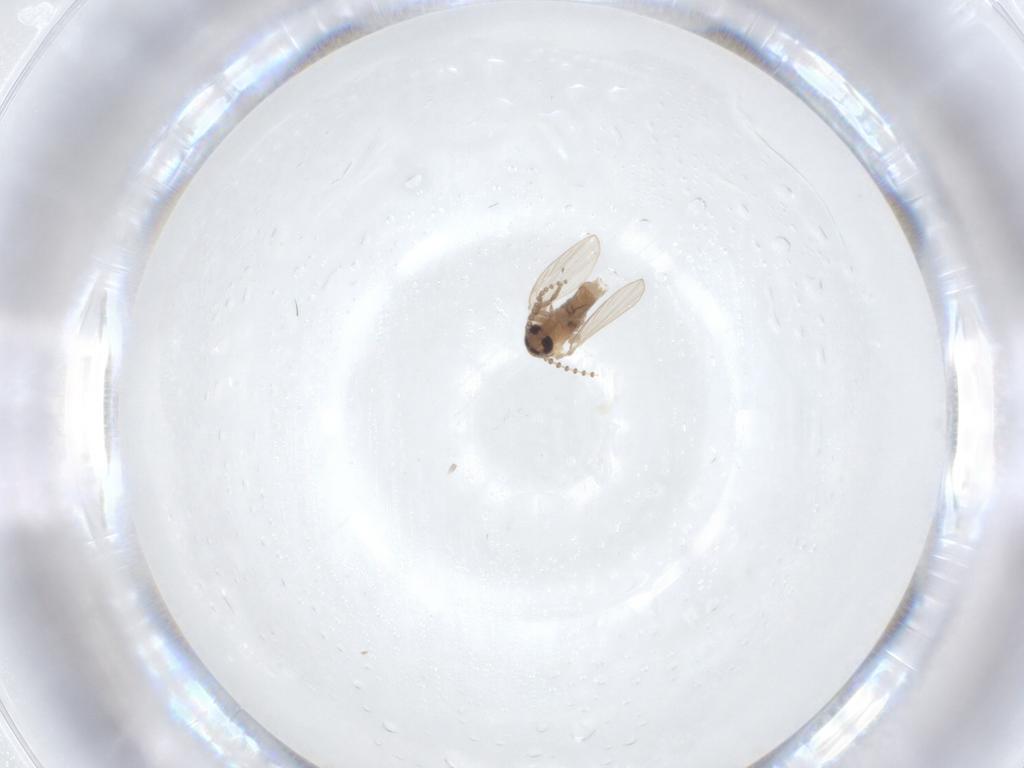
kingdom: Animalia
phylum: Arthropoda
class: Insecta
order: Diptera
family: Psychodidae
